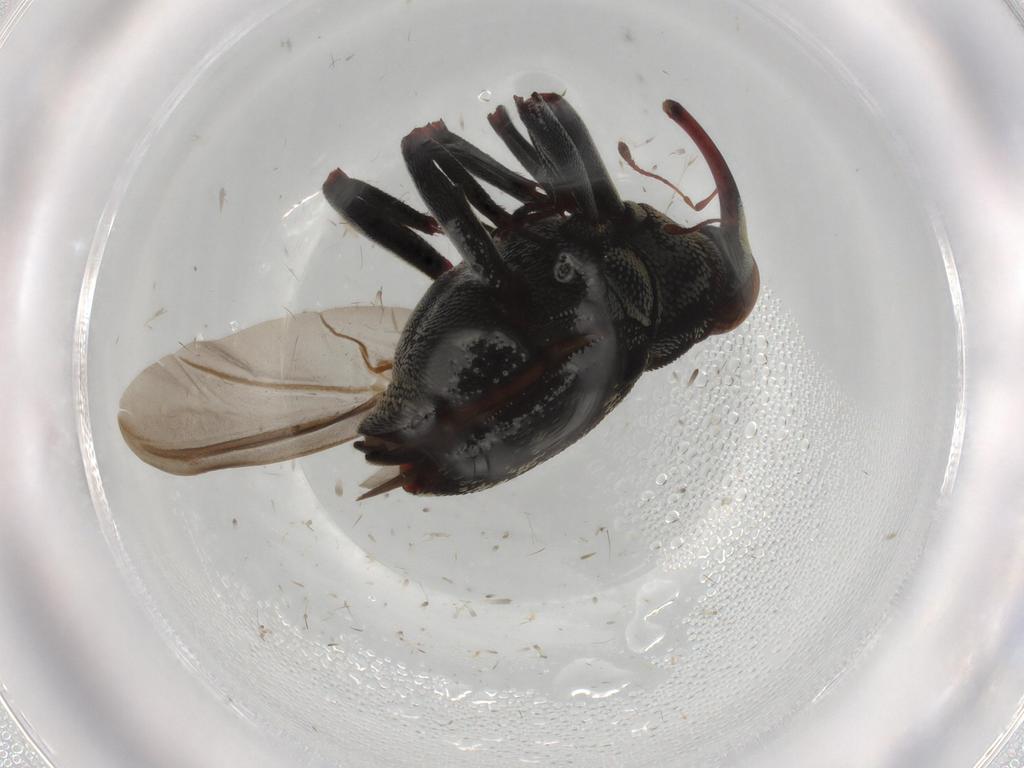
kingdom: Animalia
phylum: Arthropoda
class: Insecta
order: Coleoptera
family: Curculionidae
